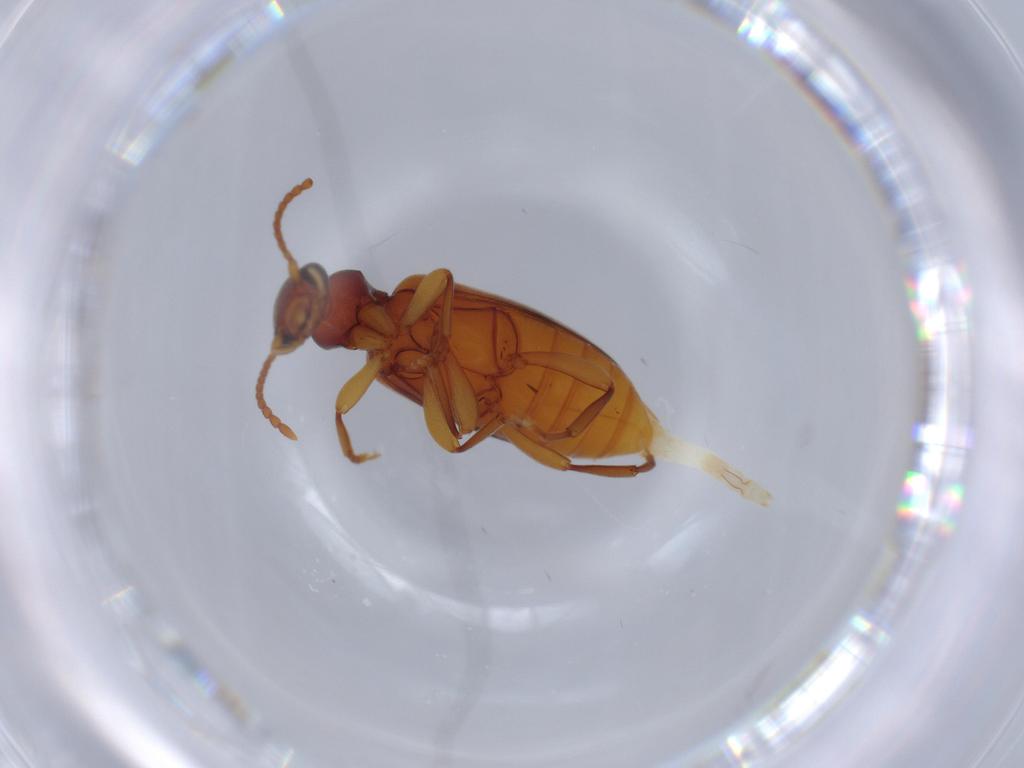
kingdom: Animalia
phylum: Arthropoda
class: Insecta
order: Coleoptera
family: Anthicidae
